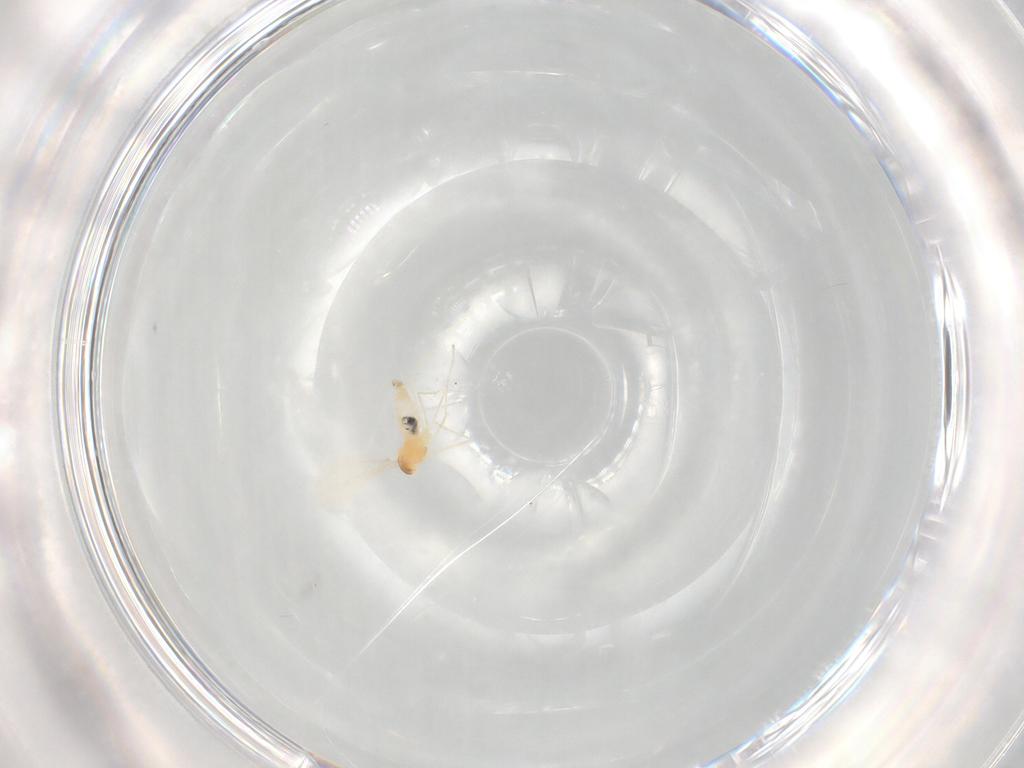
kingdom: Animalia
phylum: Arthropoda
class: Insecta
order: Diptera
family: Cecidomyiidae
